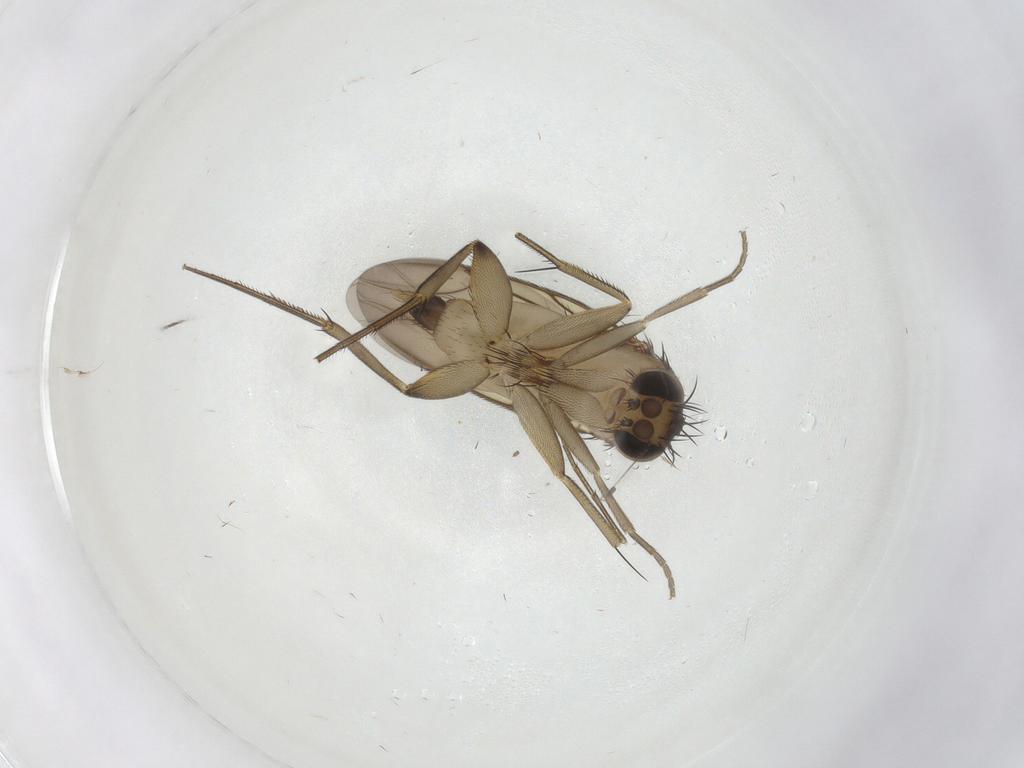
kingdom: Animalia
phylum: Arthropoda
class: Insecta
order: Diptera
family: Phoridae
